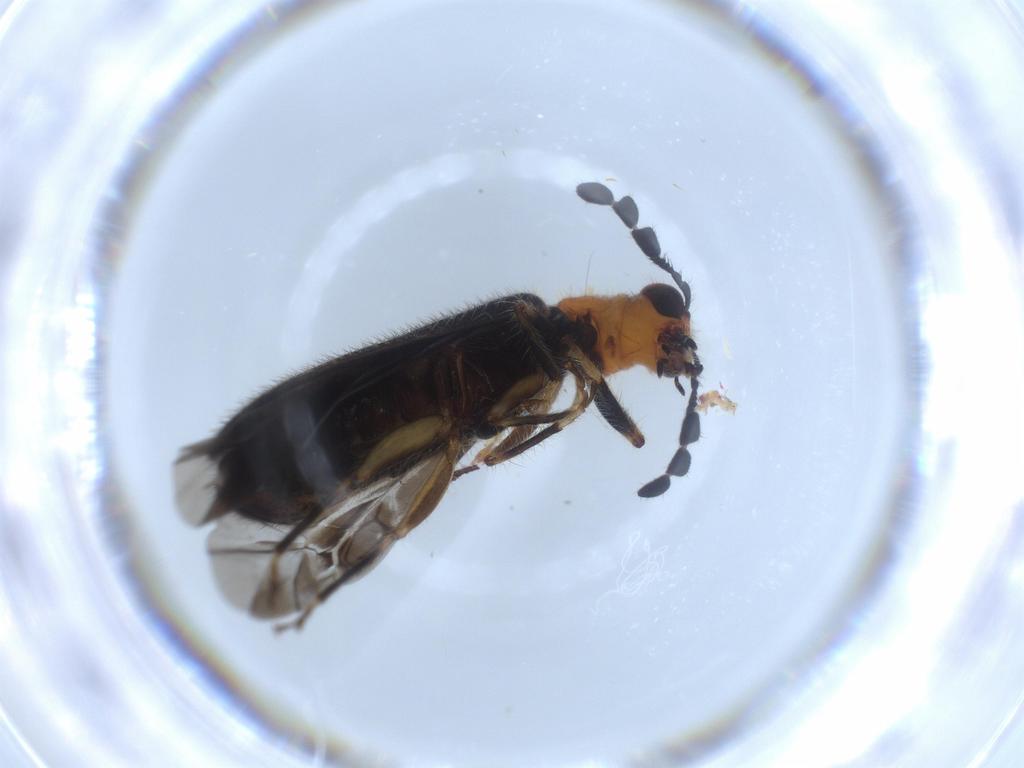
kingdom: Animalia
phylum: Arthropoda
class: Insecta
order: Coleoptera
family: Cleridae
